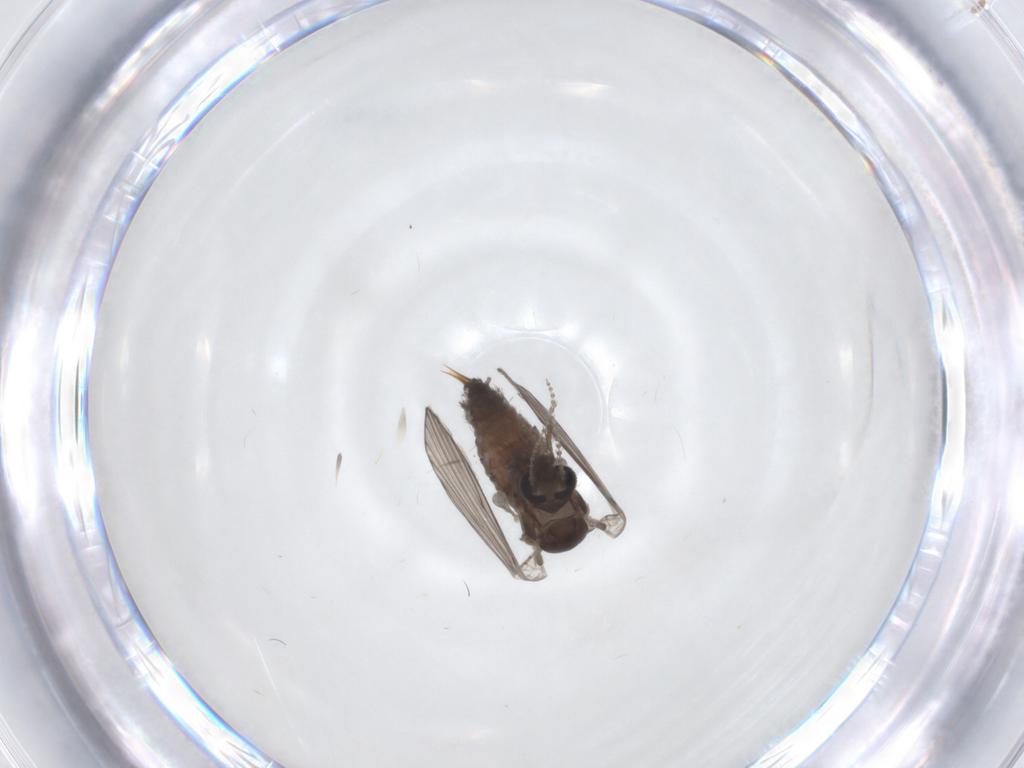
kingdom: Animalia
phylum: Arthropoda
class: Insecta
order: Diptera
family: Psychodidae
